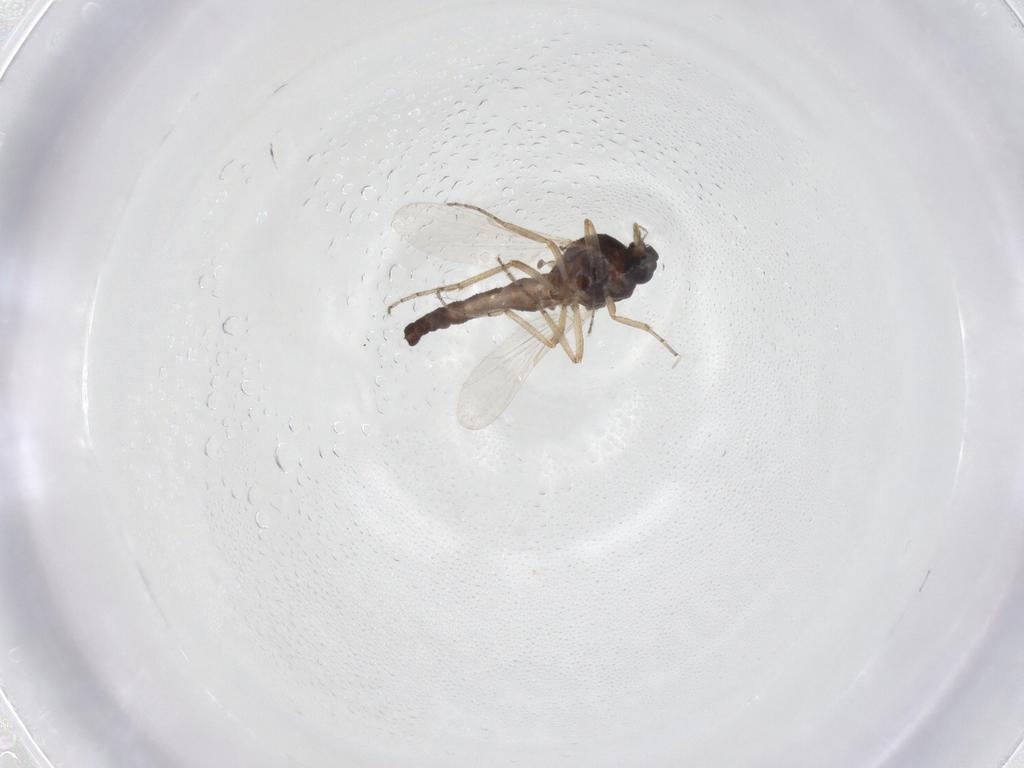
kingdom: Animalia
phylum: Arthropoda
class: Insecta
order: Diptera
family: Ceratopogonidae
